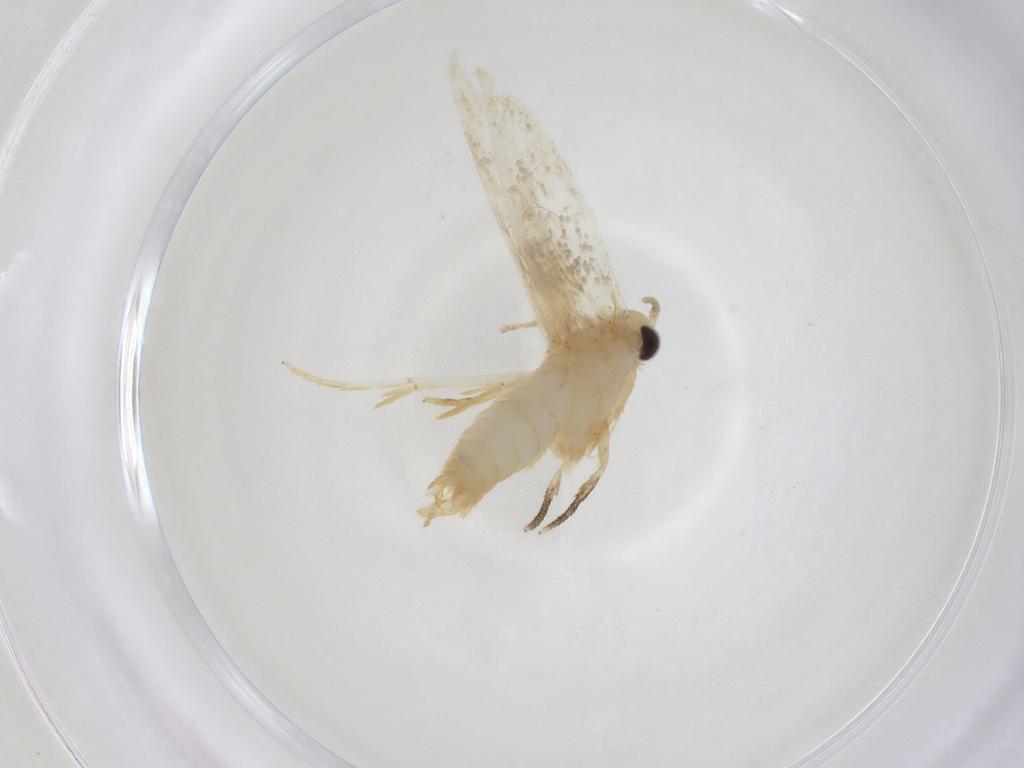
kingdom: Animalia
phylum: Arthropoda
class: Insecta
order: Lepidoptera
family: Erebidae
